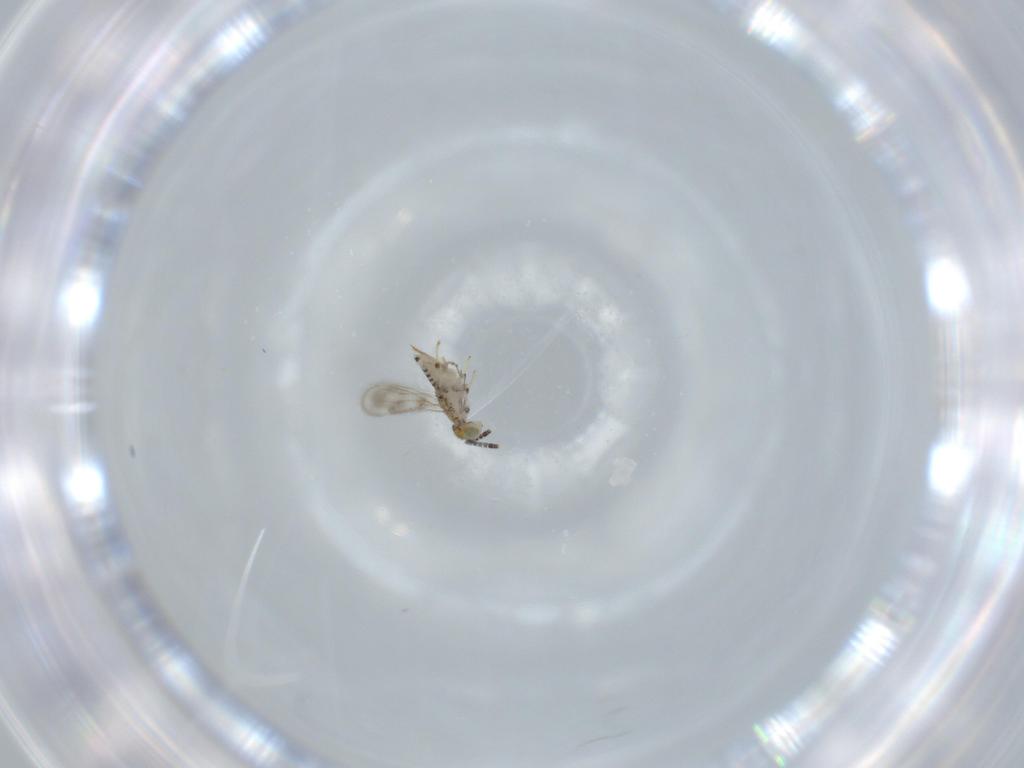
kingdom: Animalia
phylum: Arthropoda
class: Insecta
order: Hymenoptera
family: Aphelinidae
